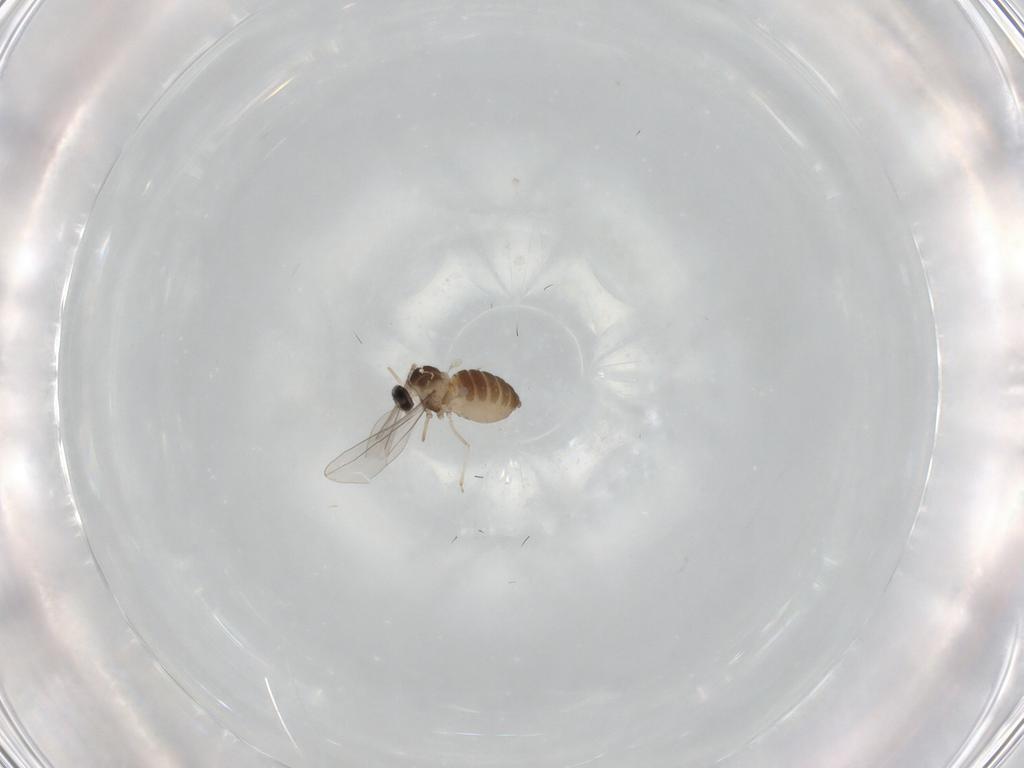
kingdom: Animalia
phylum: Arthropoda
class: Insecta
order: Diptera
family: Cecidomyiidae
